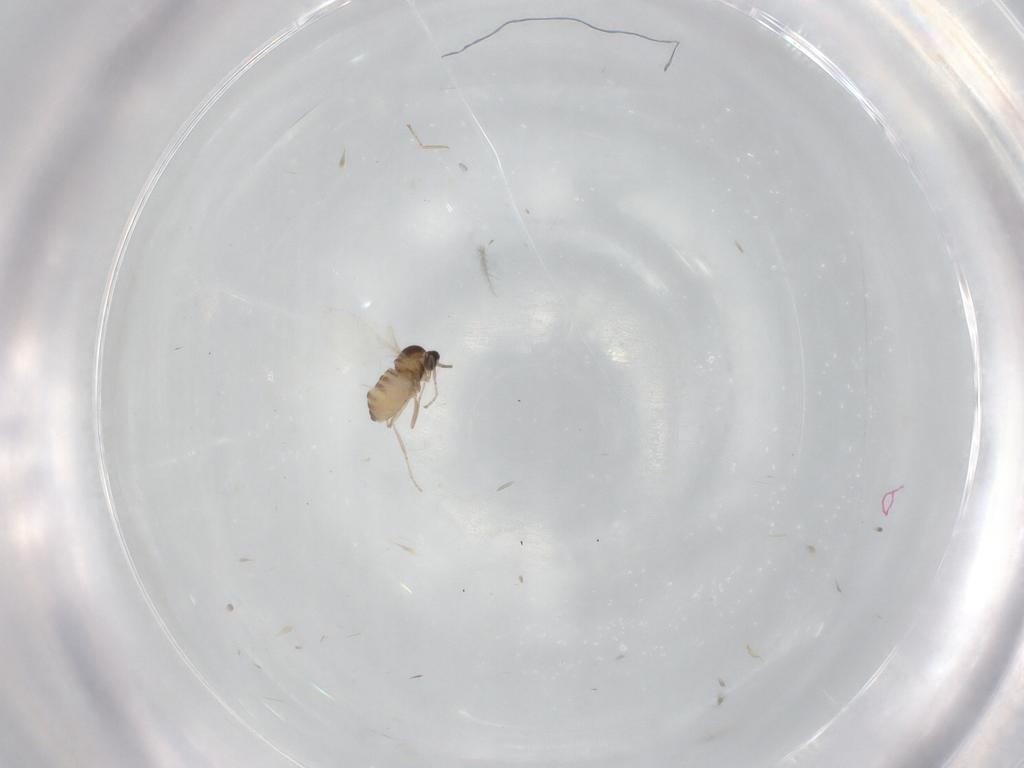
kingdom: Animalia
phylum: Arthropoda
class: Insecta
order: Diptera
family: Cecidomyiidae
